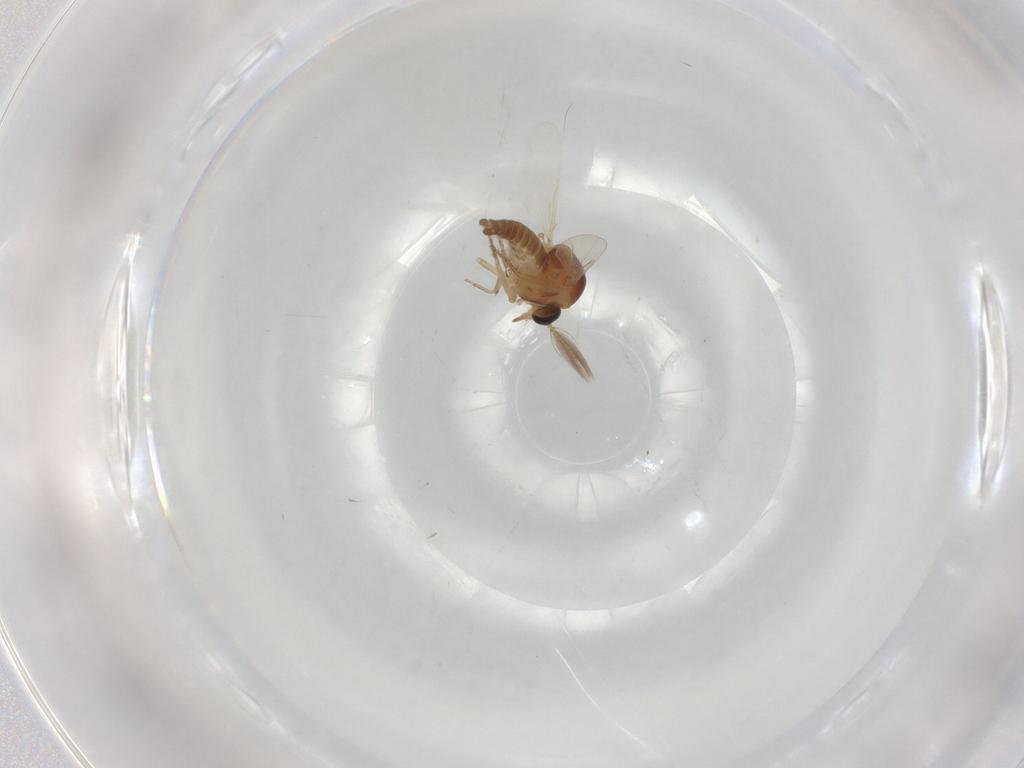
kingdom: Animalia
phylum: Arthropoda
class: Insecta
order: Diptera
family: Ceratopogonidae
